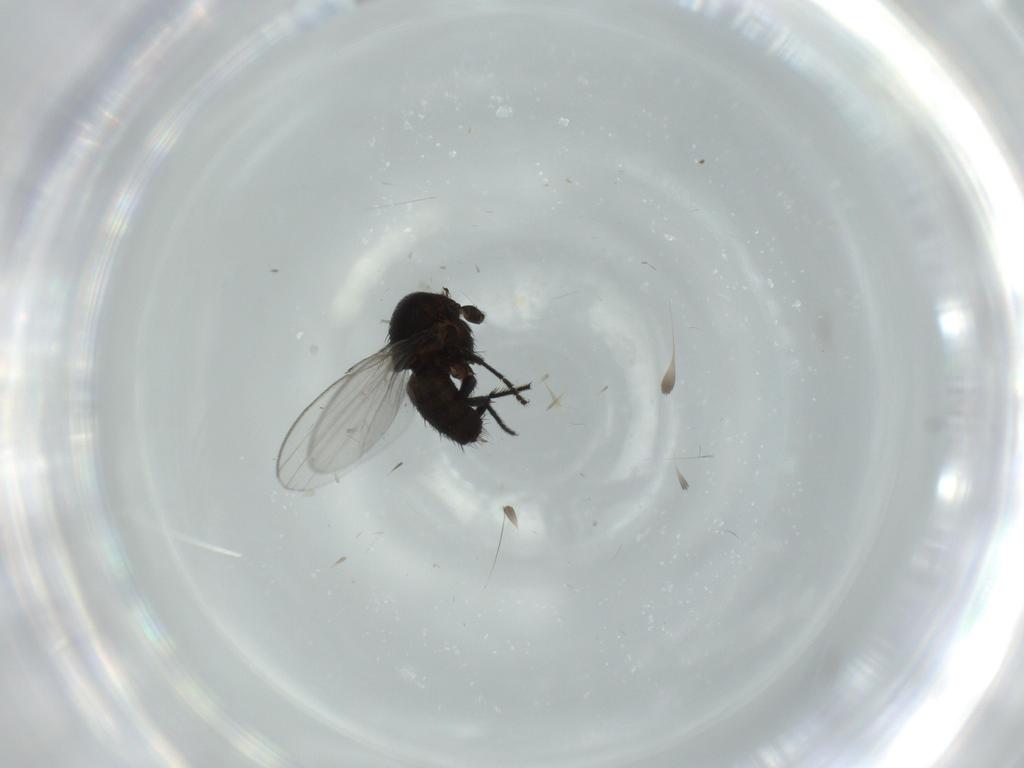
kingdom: Animalia
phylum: Arthropoda
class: Insecta
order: Diptera
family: Milichiidae
